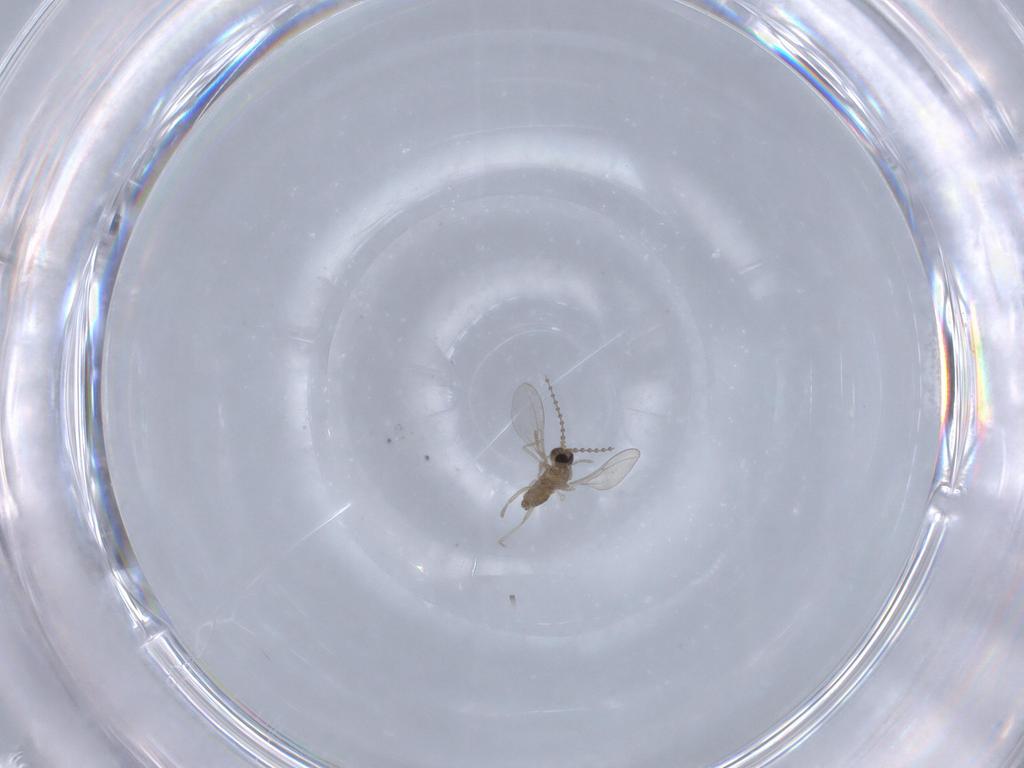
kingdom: Animalia
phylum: Arthropoda
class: Insecta
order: Diptera
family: Cecidomyiidae
